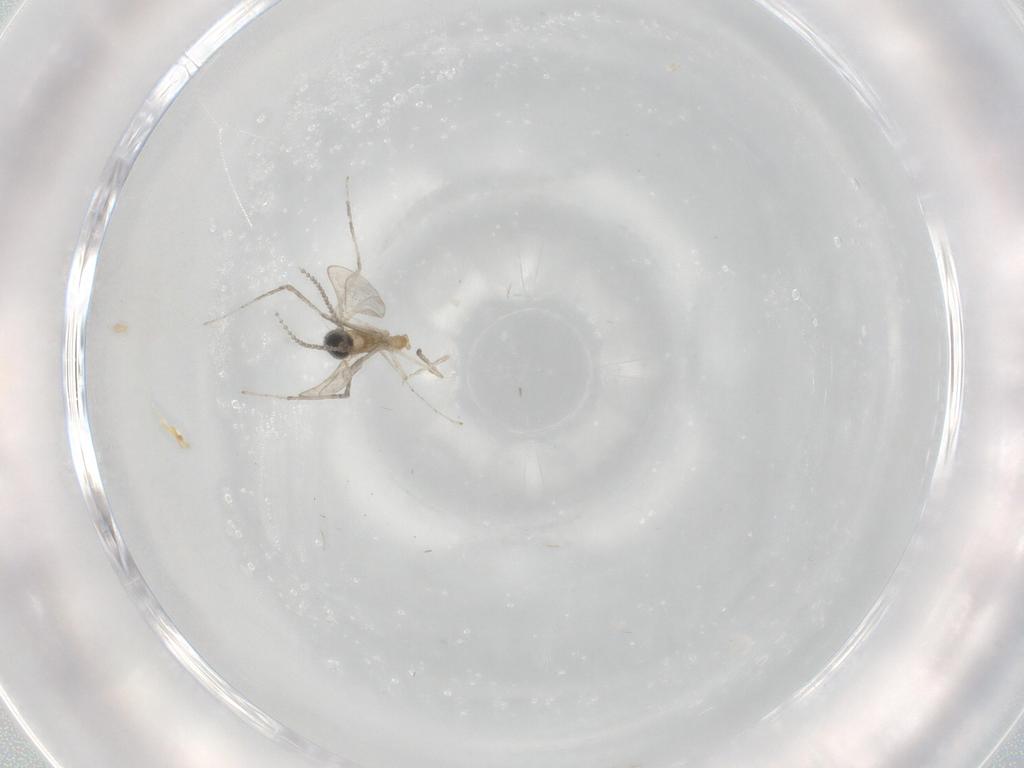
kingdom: Animalia
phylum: Arthropoda
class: Insecta
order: Diptera
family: Cecidomyiidae
